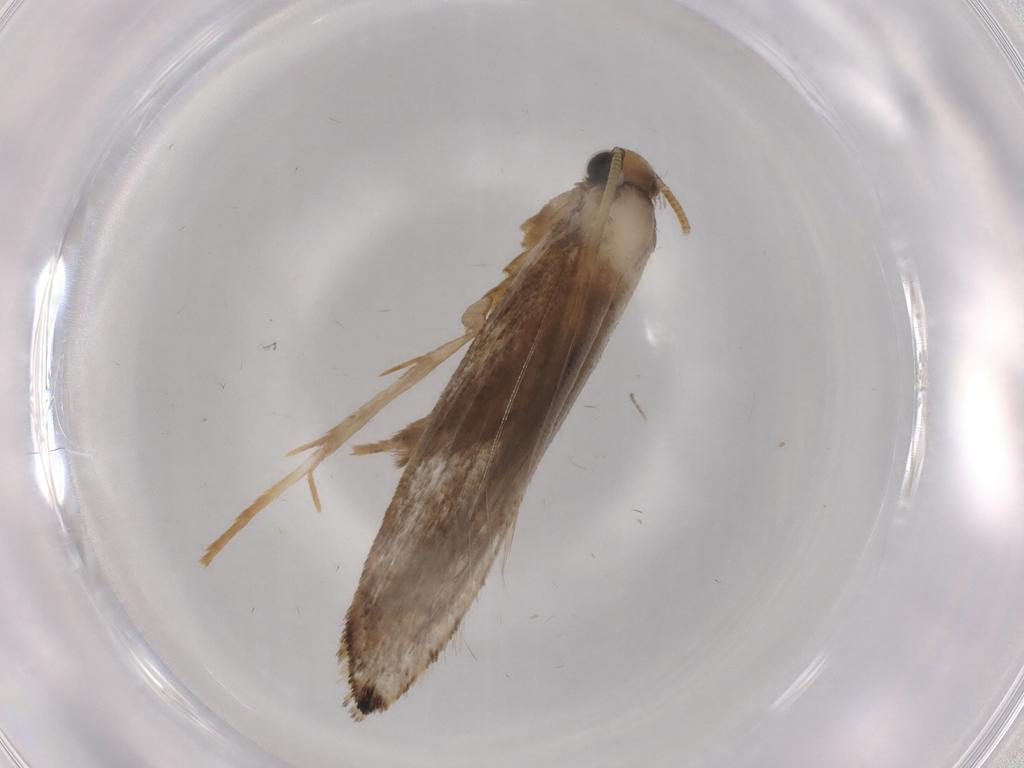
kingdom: Animalia
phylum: Arthropoda
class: Insecta
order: Lepidoptera
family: Tineidae
